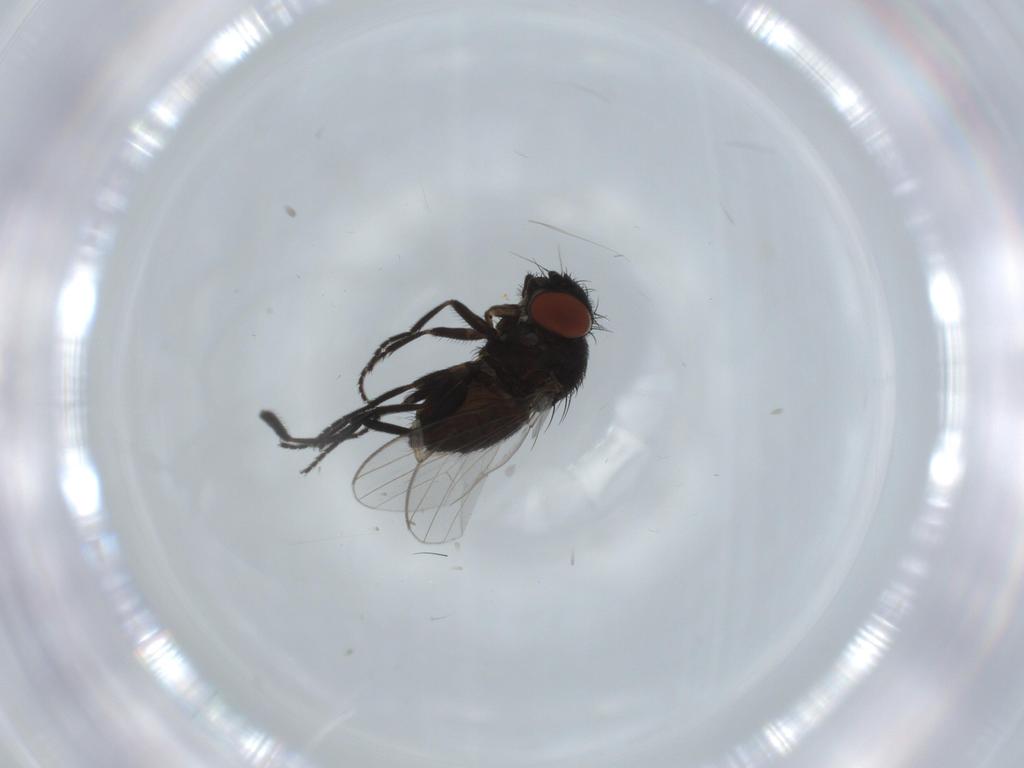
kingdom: Animalia
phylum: Arthropoda
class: Insecta
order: Diptera
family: Milichiidae
